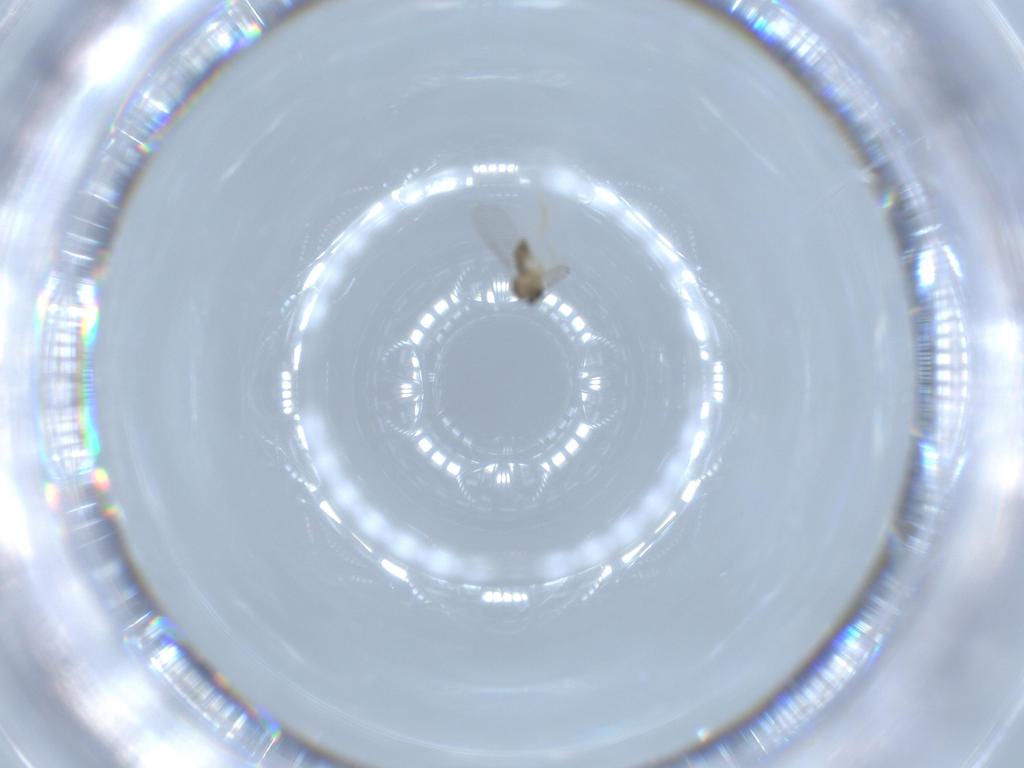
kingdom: Animalia
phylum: Arthropoda
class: Insecta
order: Diptera
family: Cecidomyiidae
